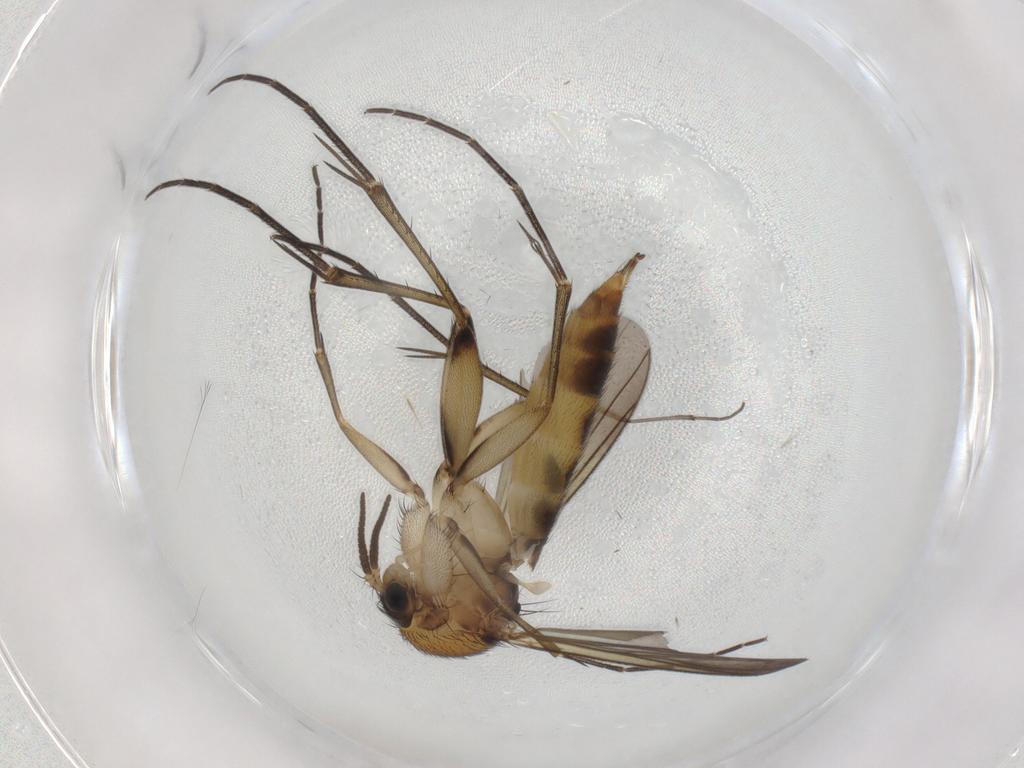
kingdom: Animalia
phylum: Arthropoda
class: Insecta
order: Diptera
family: Mycetophilidae
